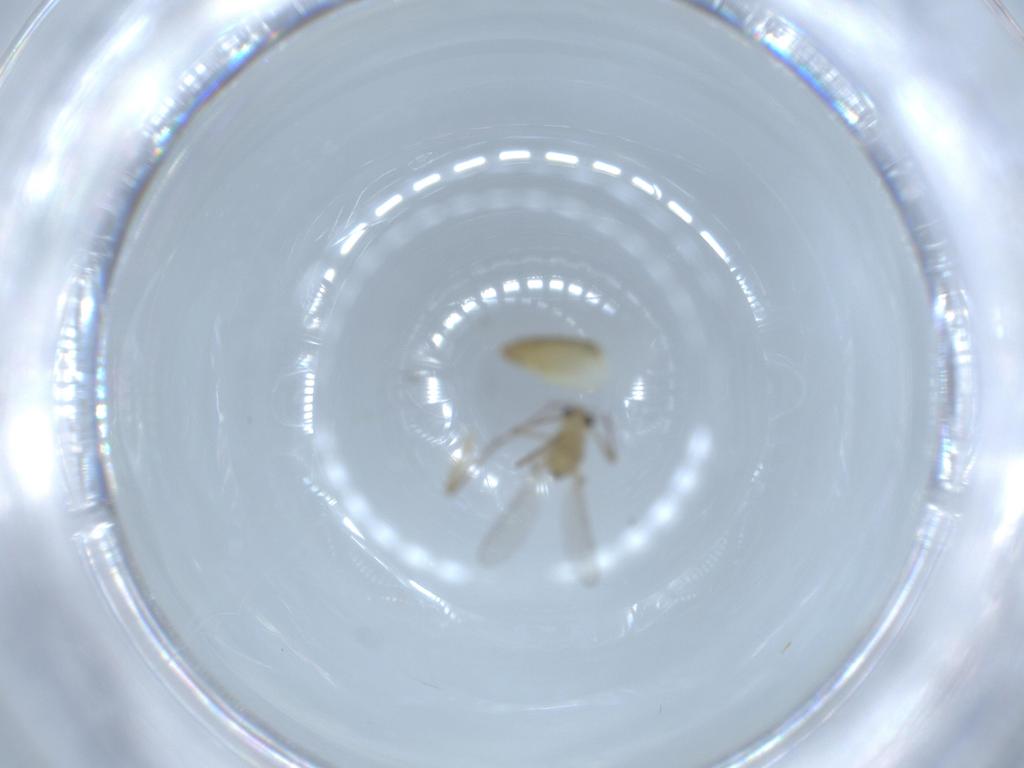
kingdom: Animalia
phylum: Arthropoda
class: Insecta
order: Diptera
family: Chironomidae
